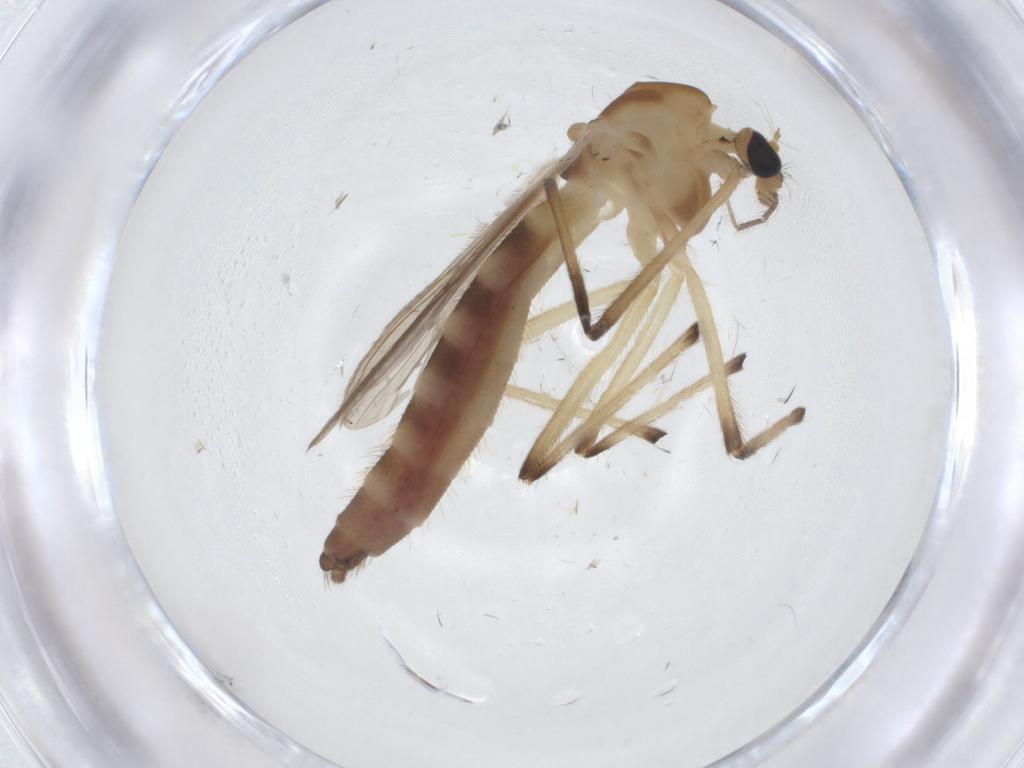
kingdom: Animalia
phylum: Arthropoda
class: Insecta
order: Diptera
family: Chironomidae
